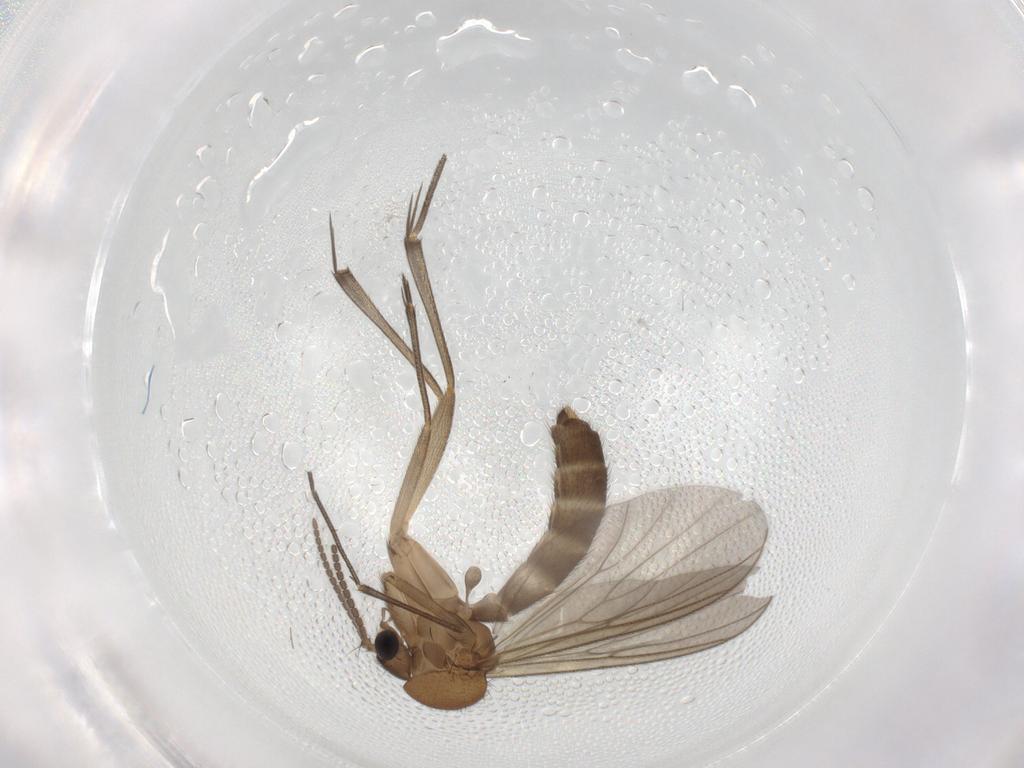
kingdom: Animalia
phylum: Arthropoda
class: Insecta
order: Diptera
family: Mycetophilidae
